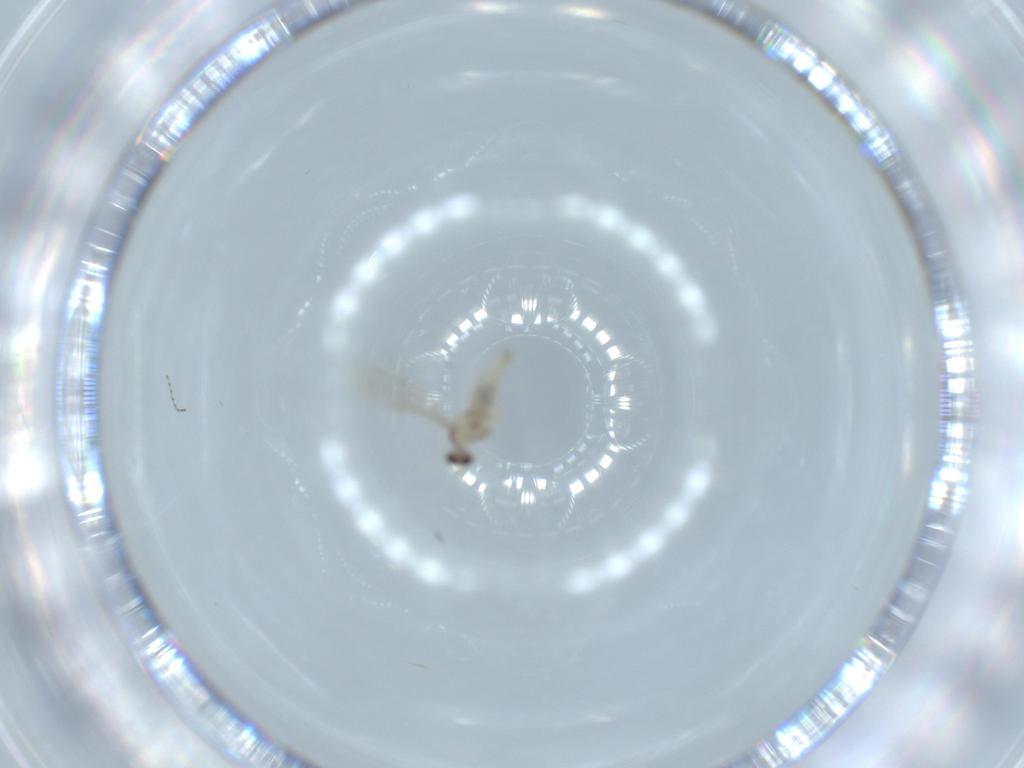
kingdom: Animalia
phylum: Arthropoda
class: Insecta
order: Diptera
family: Cecidomyiidae
